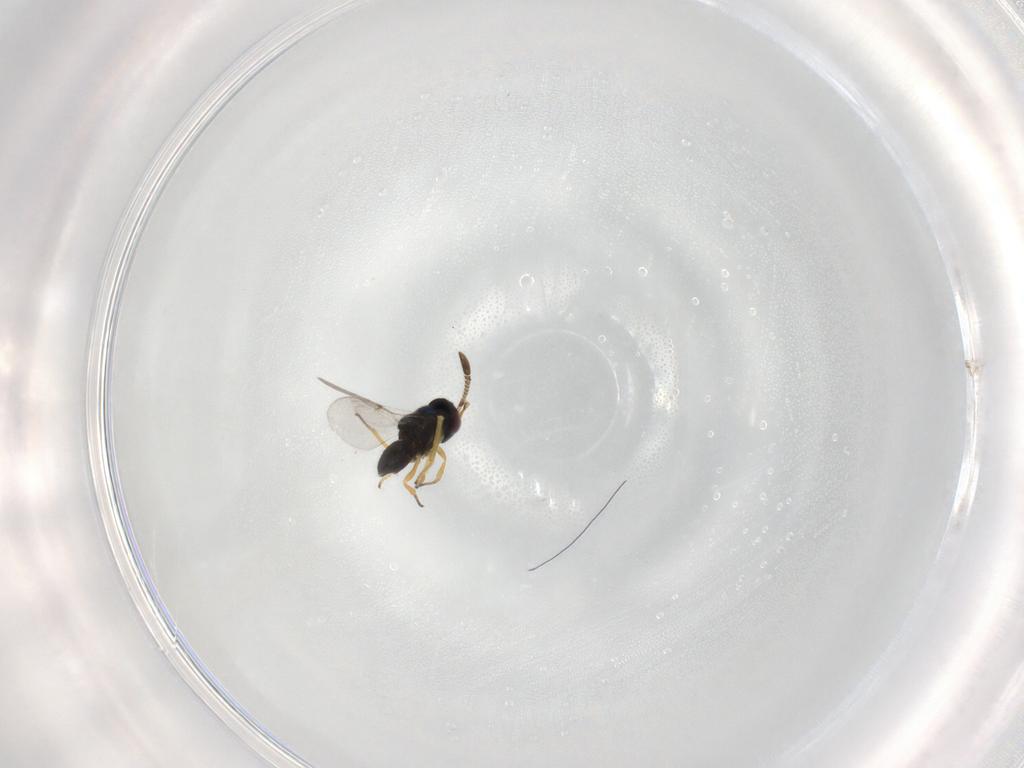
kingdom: Animalia
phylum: Arthropoda
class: Insecta
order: Hymenoptera
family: Encyrtidae
